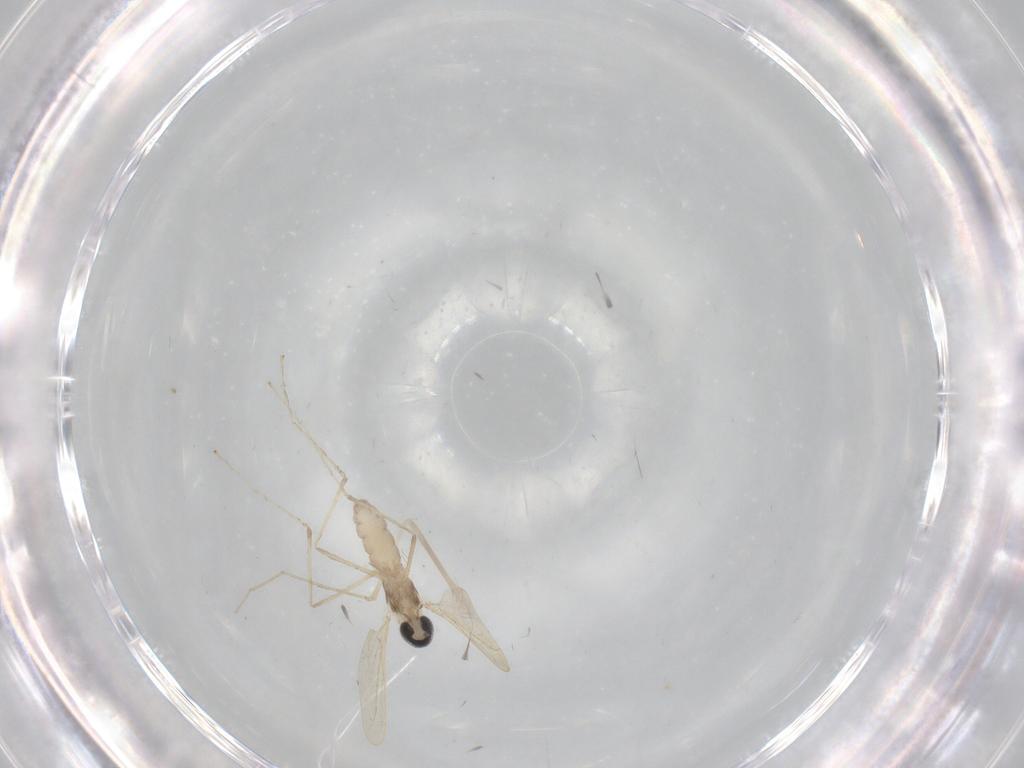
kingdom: Animalia
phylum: Arthropoda
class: Insecta
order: Diptera
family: Cecidomyiidae
